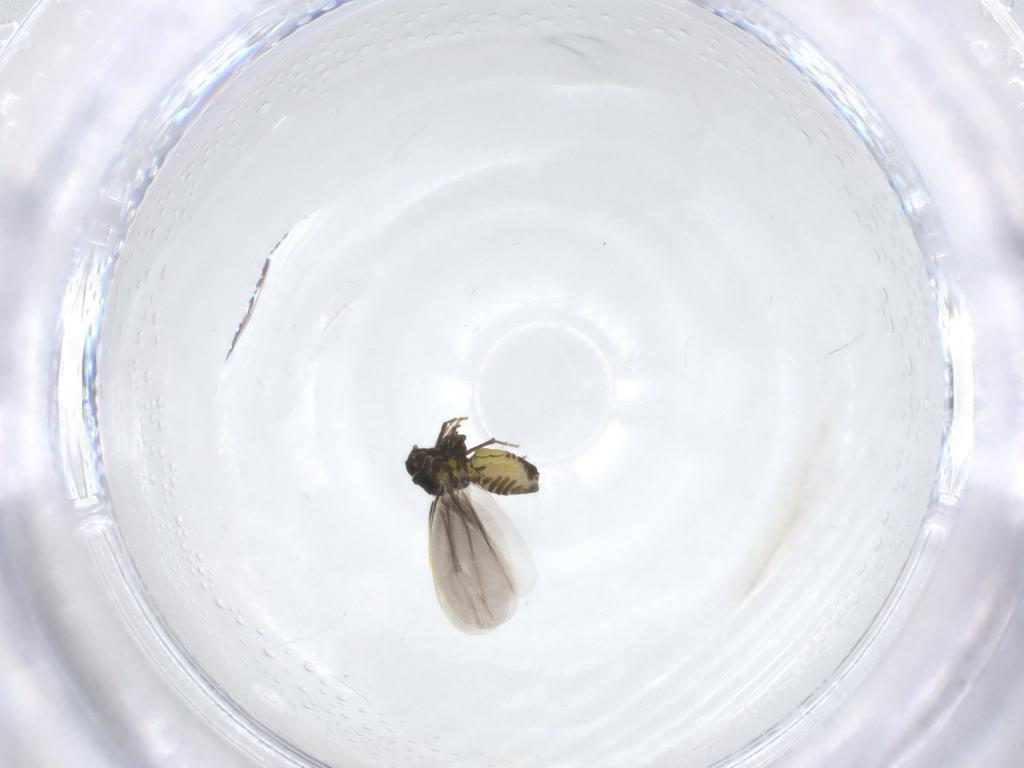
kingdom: Animalia
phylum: Arthropoda
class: Insecta
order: Hemiptera
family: Aleyrodidae
